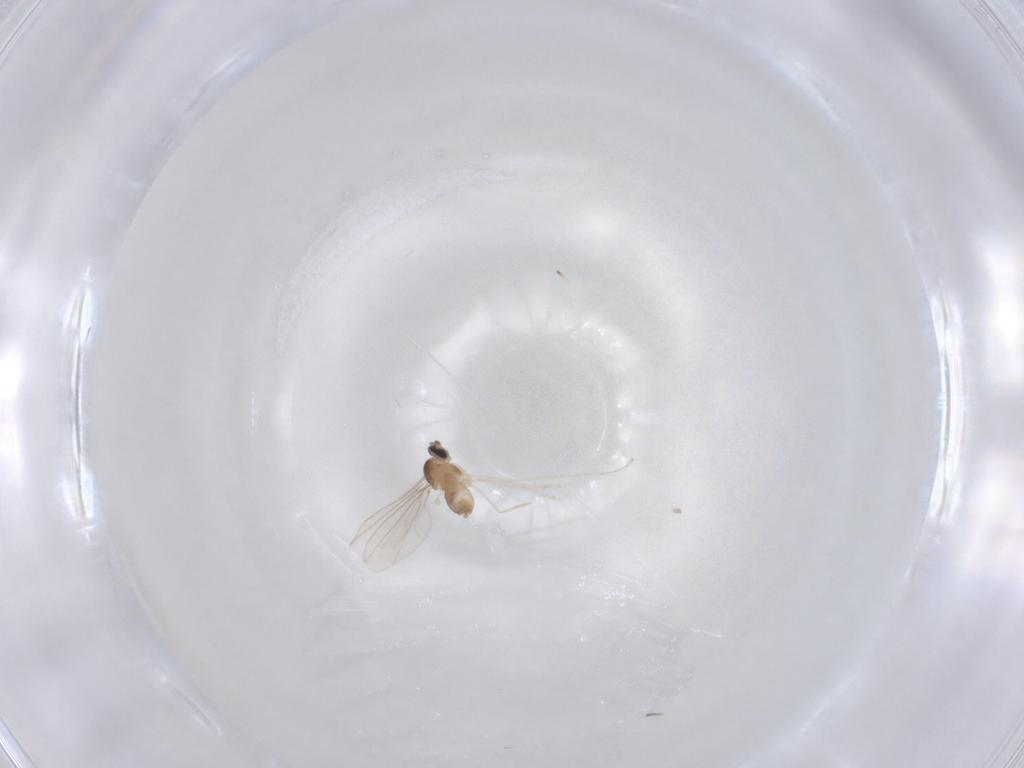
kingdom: Animalia
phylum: Arthropoda
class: Insecta
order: Diptera
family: Cecidomyiidae
